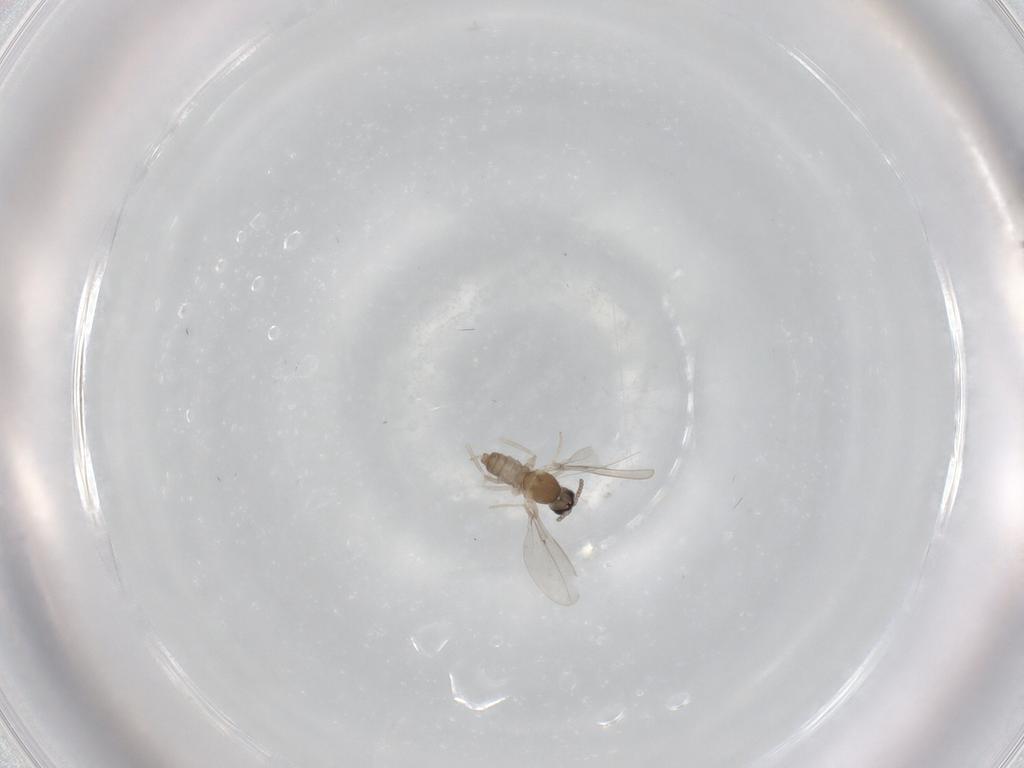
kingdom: Animalia
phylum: Arthropoda
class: Insecta
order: Diptera
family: Cecidomyiidae
